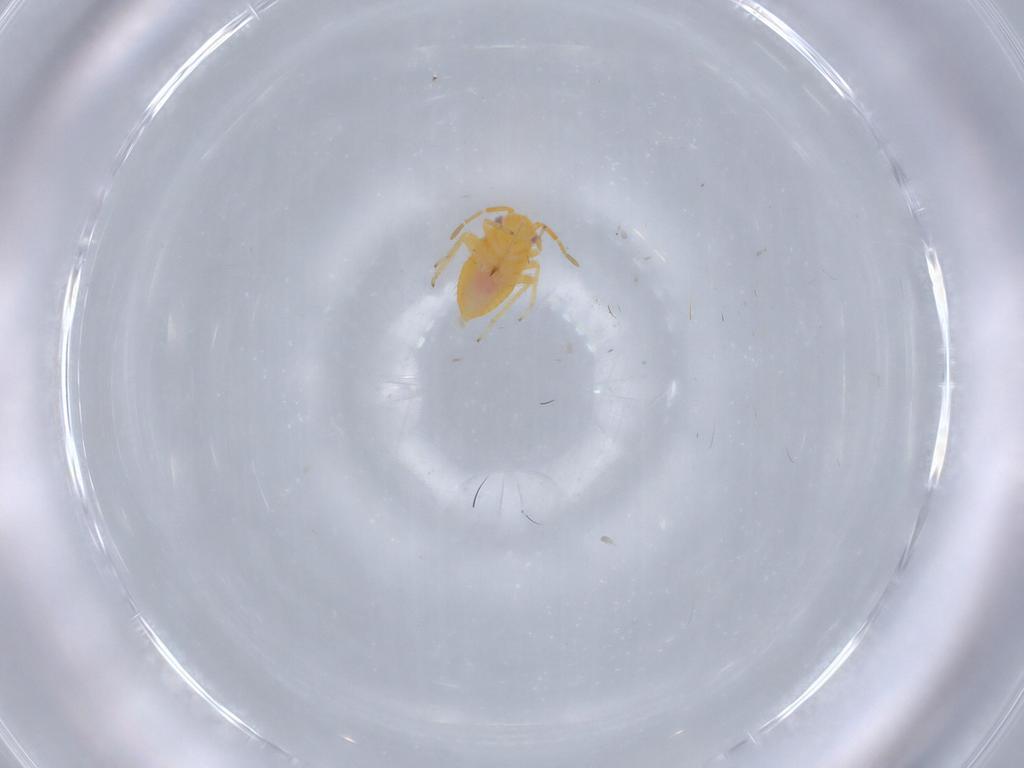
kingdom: Animalia
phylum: Arthropoda
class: Insecta
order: Hemiptera
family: Miridae
